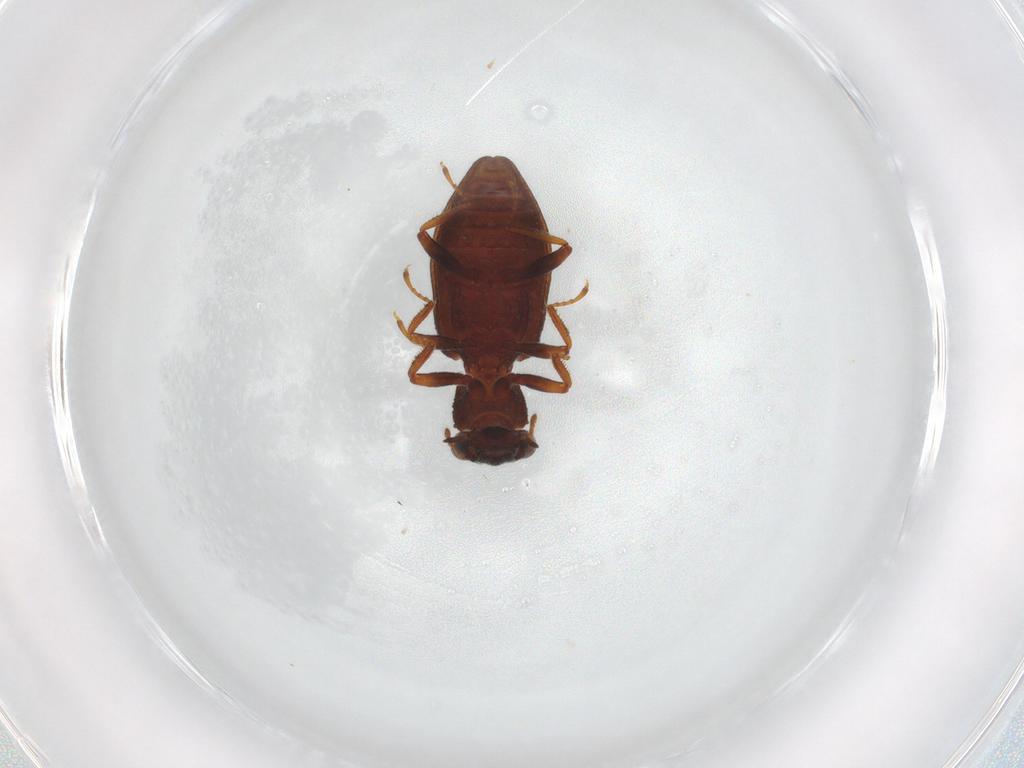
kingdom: Animalia
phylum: Arthropoda
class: Insecta
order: Coleoptera
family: Hydrophilidae
